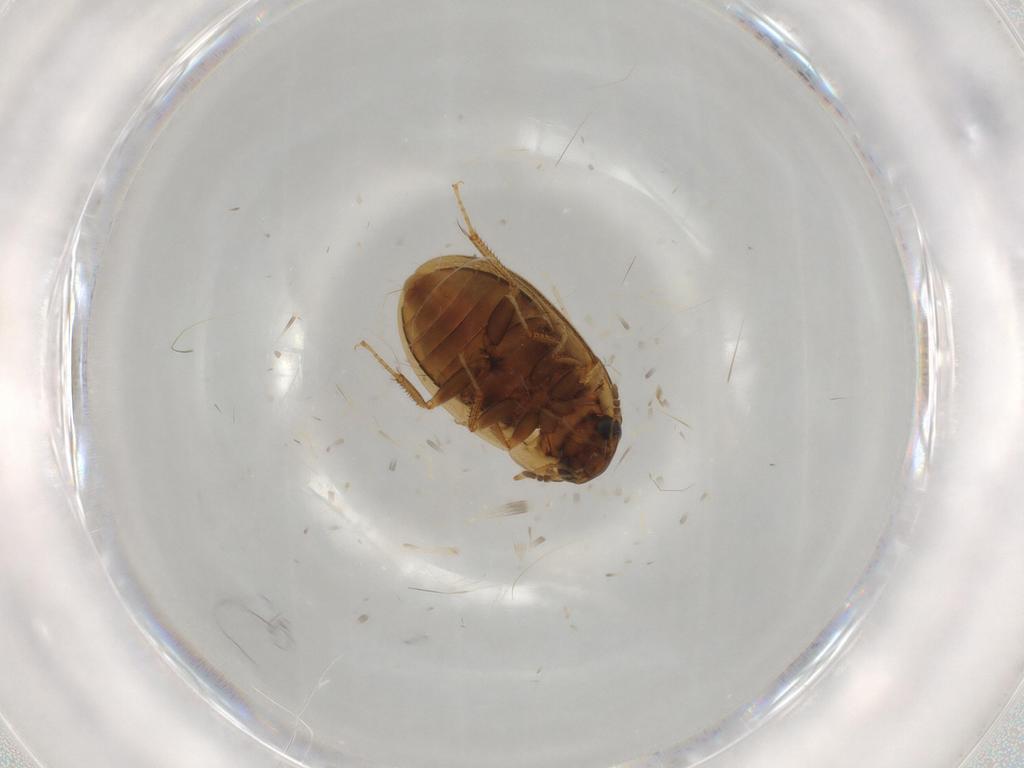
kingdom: Animalia
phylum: Arthropoda
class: Insecta
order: Coleoptera
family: Hydrophilidae
